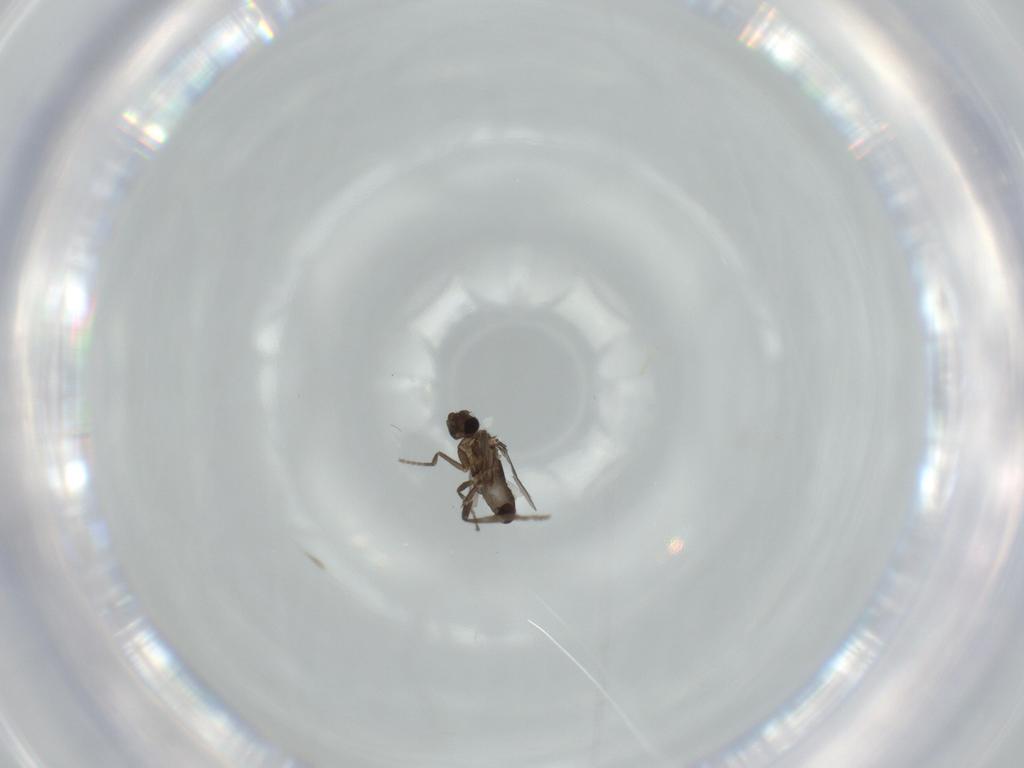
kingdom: Animalia
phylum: Arthropoda
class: Insecta
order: Diptera
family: Phoridae
